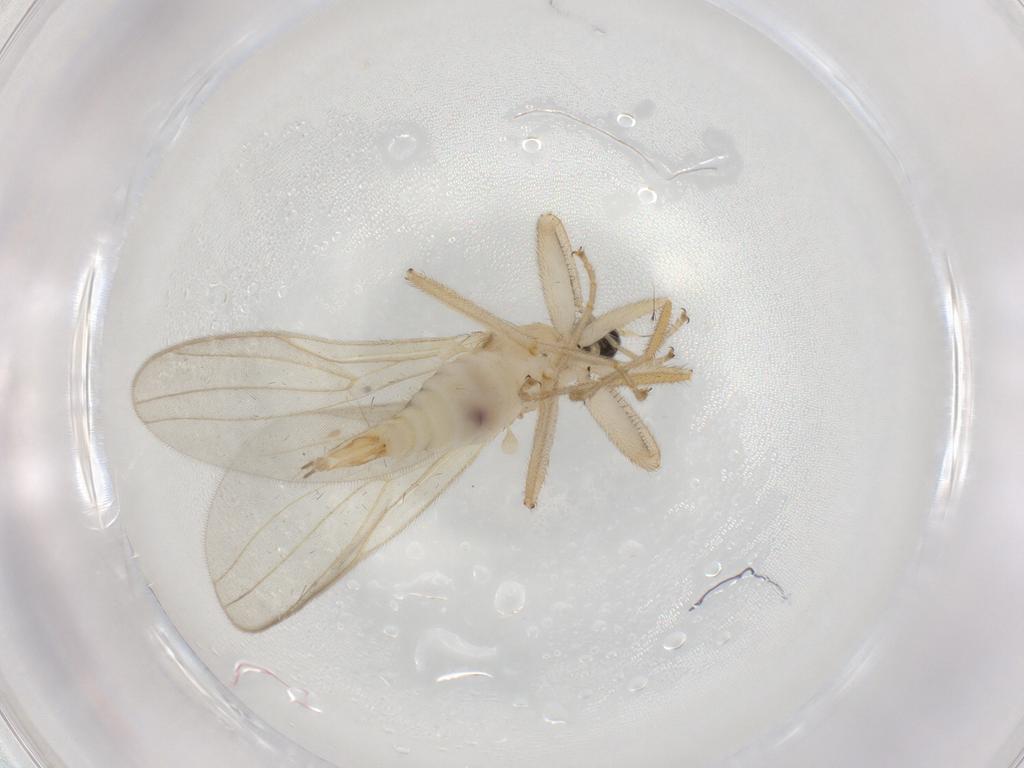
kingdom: Animalia
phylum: Arthropoda
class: Insecta
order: Diptera
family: Hybotidae
